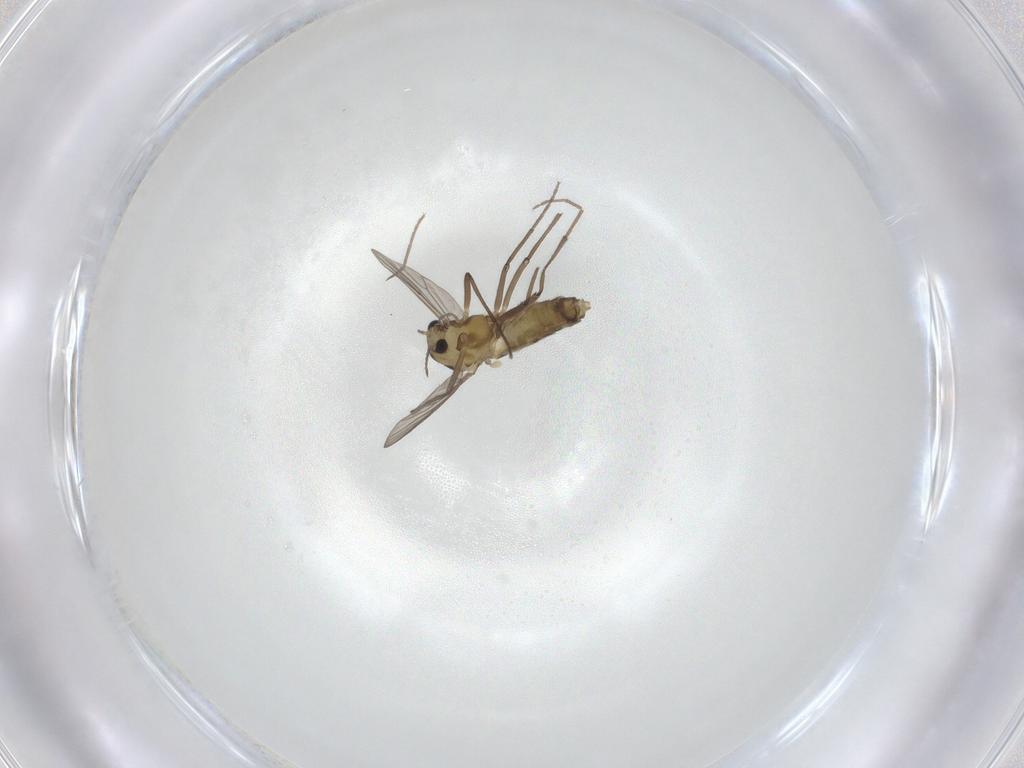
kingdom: Animalia
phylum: Arthropoda
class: Insecta
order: Diptera
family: Chironomidae
